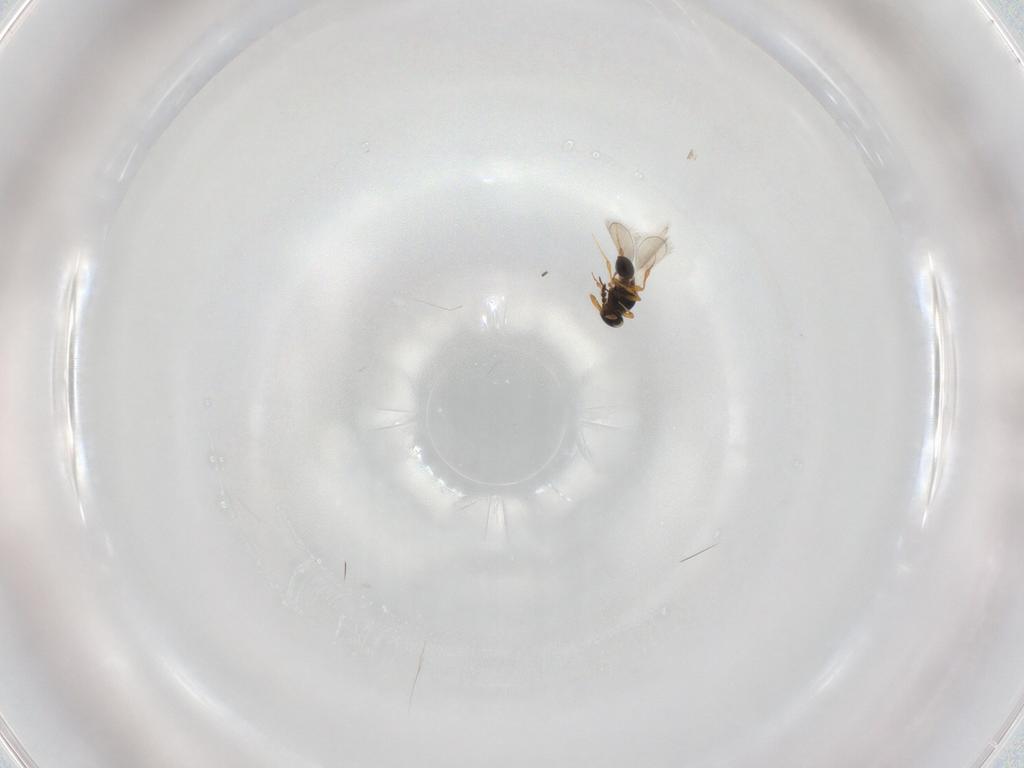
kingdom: Animalia
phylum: Arthropoda
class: Insecta
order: Hymenoptera
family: Platygastridae
